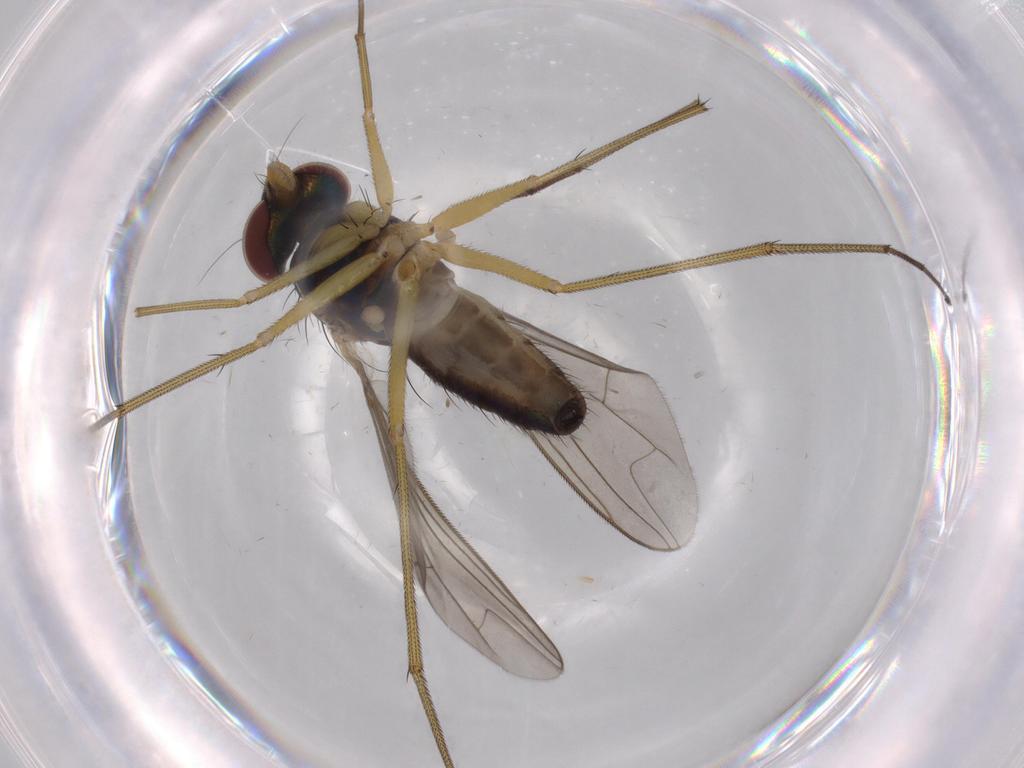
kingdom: Animalia
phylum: Arthropoda
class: Insecta
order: Diptera
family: Dolichopodidae
